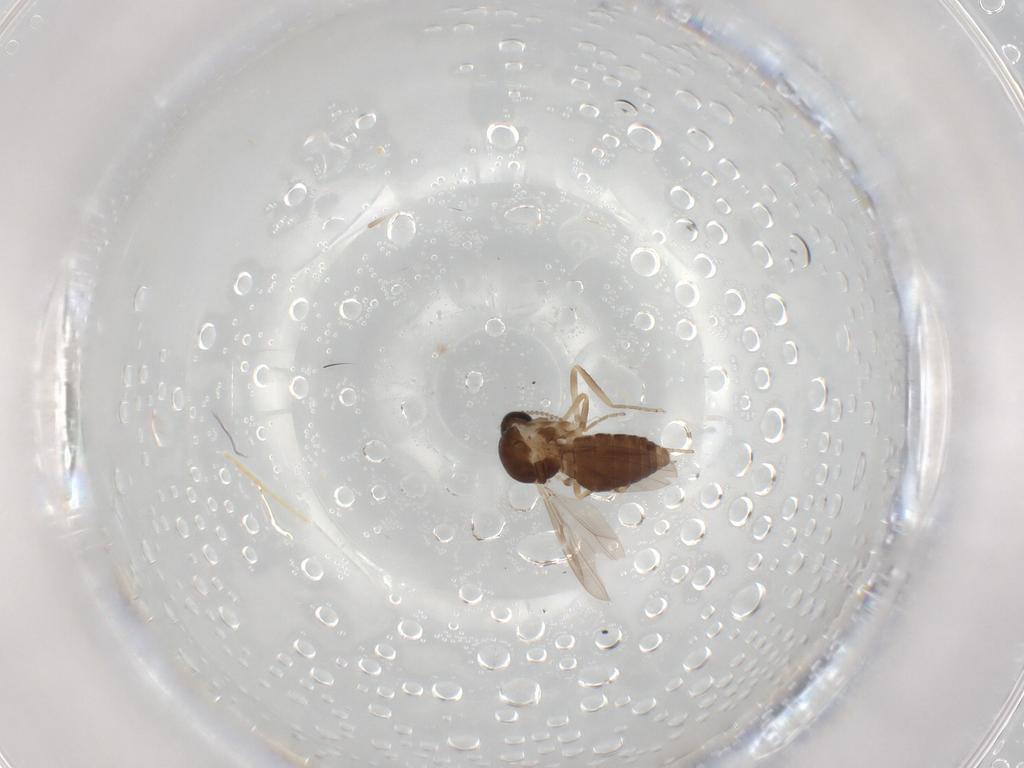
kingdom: Animalia
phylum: Arthropoda
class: Insecta
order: Diptera
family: Ceratopogonidae
